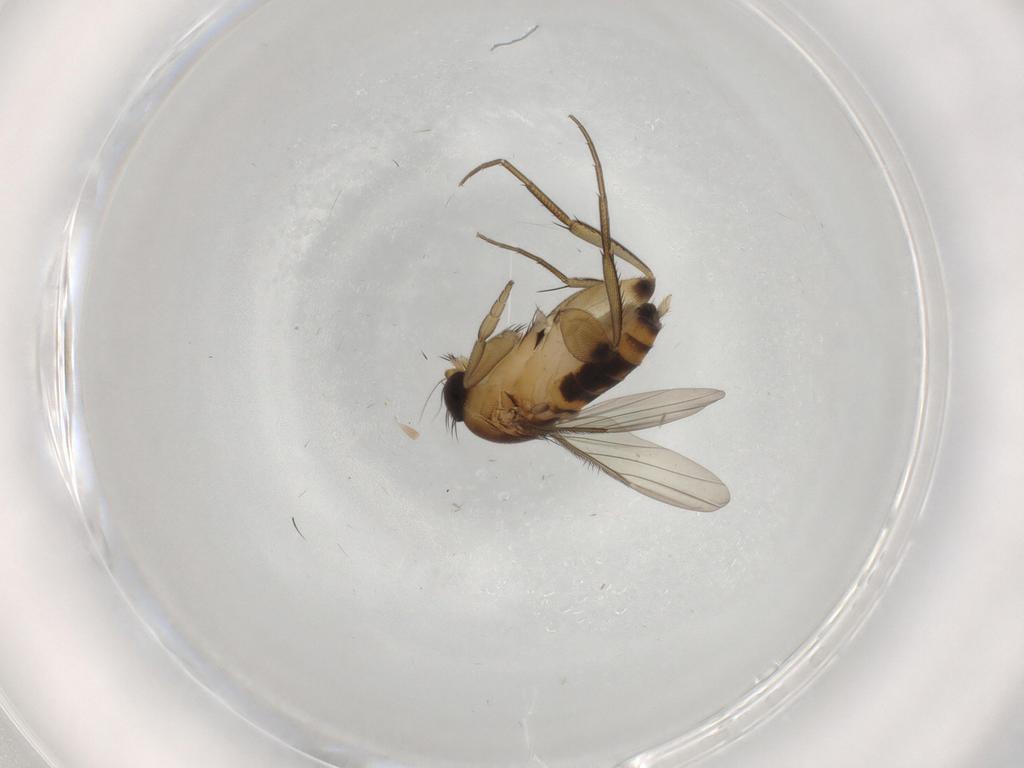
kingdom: Animalia
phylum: Arthropoda
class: Insecta
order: Diptera
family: Phoridae
